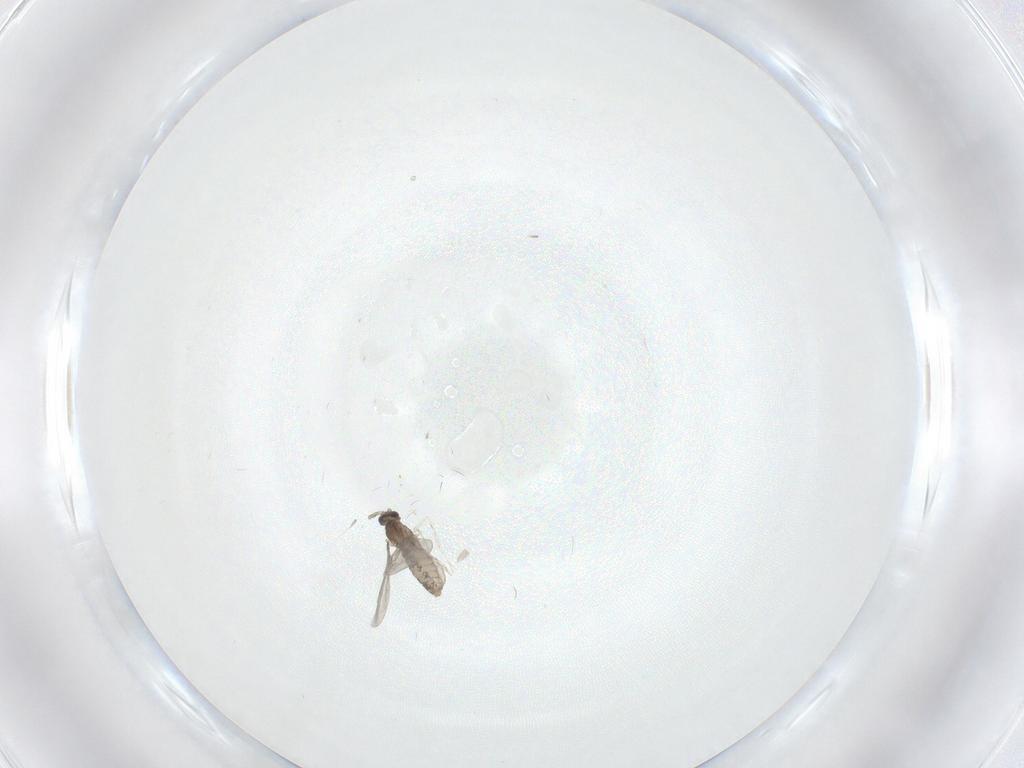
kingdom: Animalia
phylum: Arthropoda
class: Insecta
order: Diptera
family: Cecidomyiidae
